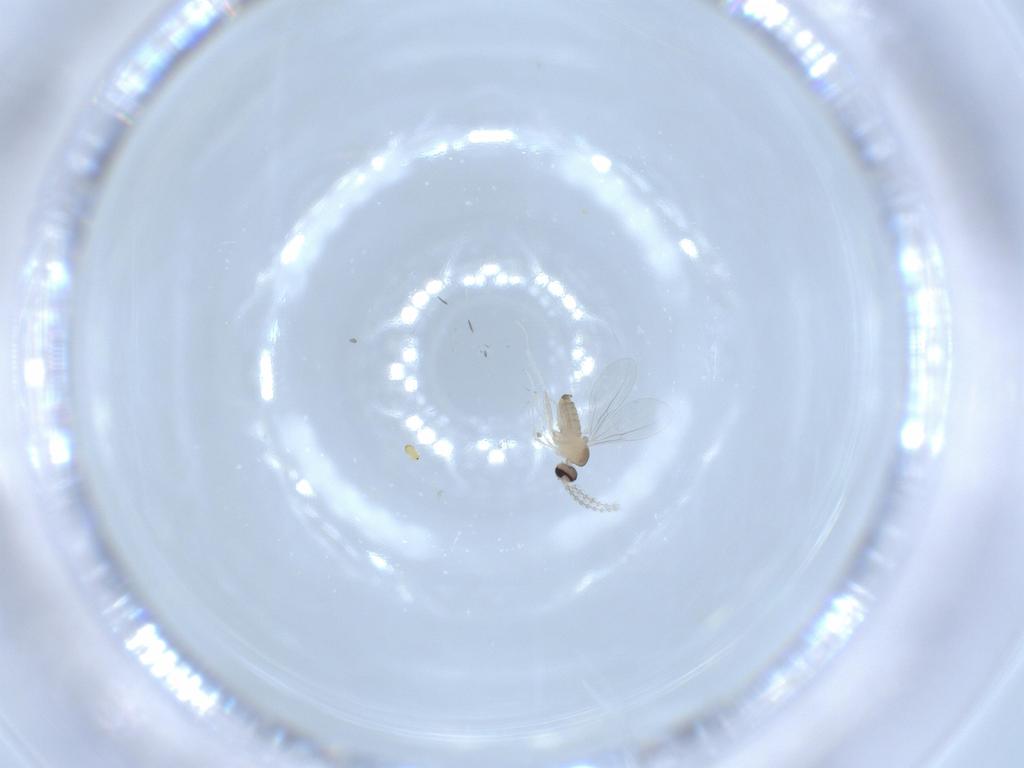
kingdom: Animalia
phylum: Arthropoda
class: Insecta
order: Diptera
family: Cecidomyiidae
